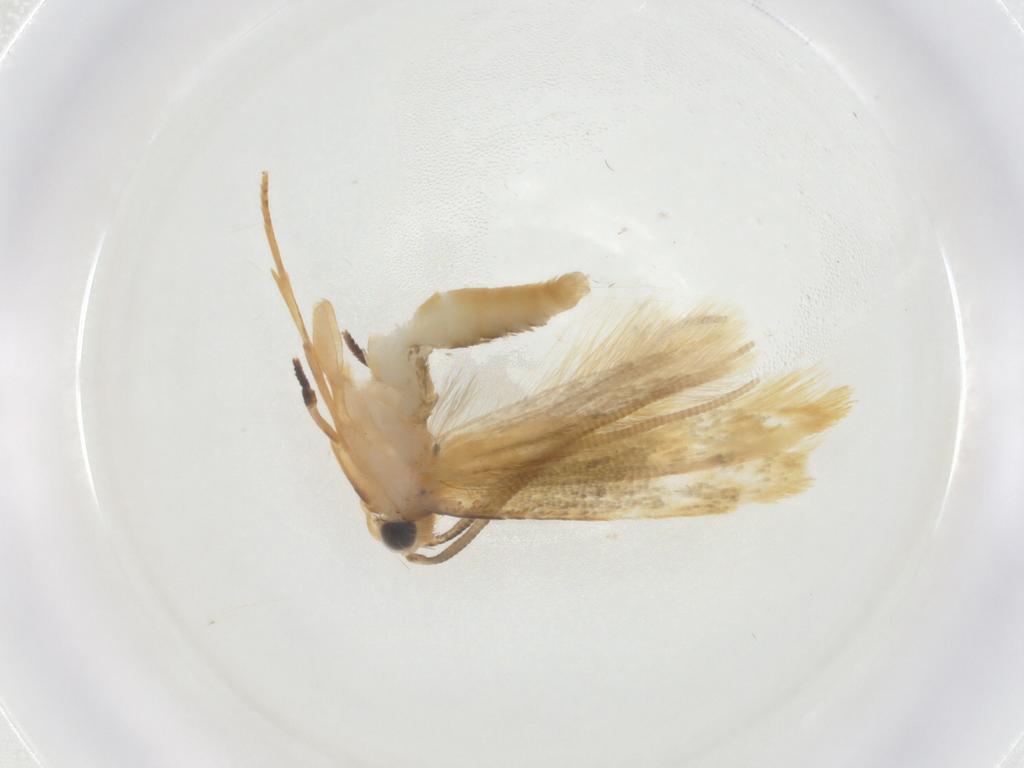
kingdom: Animalia
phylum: Arthropoda
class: Insecta
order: Lepidoptera
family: Tineidae
